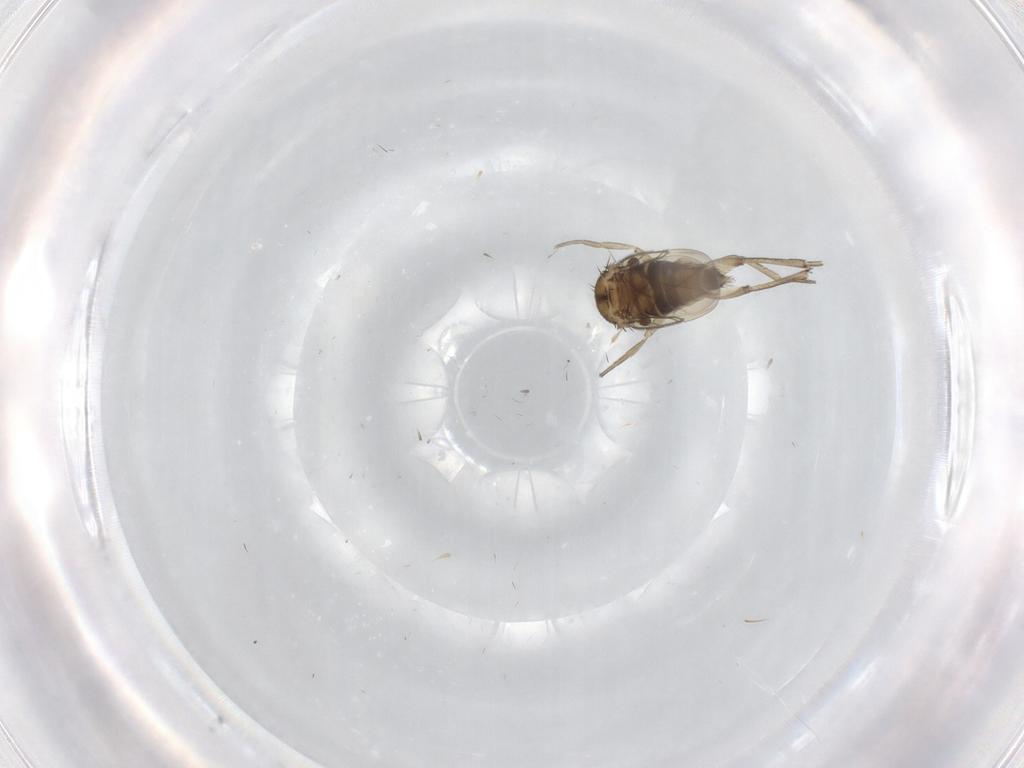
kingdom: Animalia
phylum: Arthropoda
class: Insecta
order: Diptera
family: Phoridae
